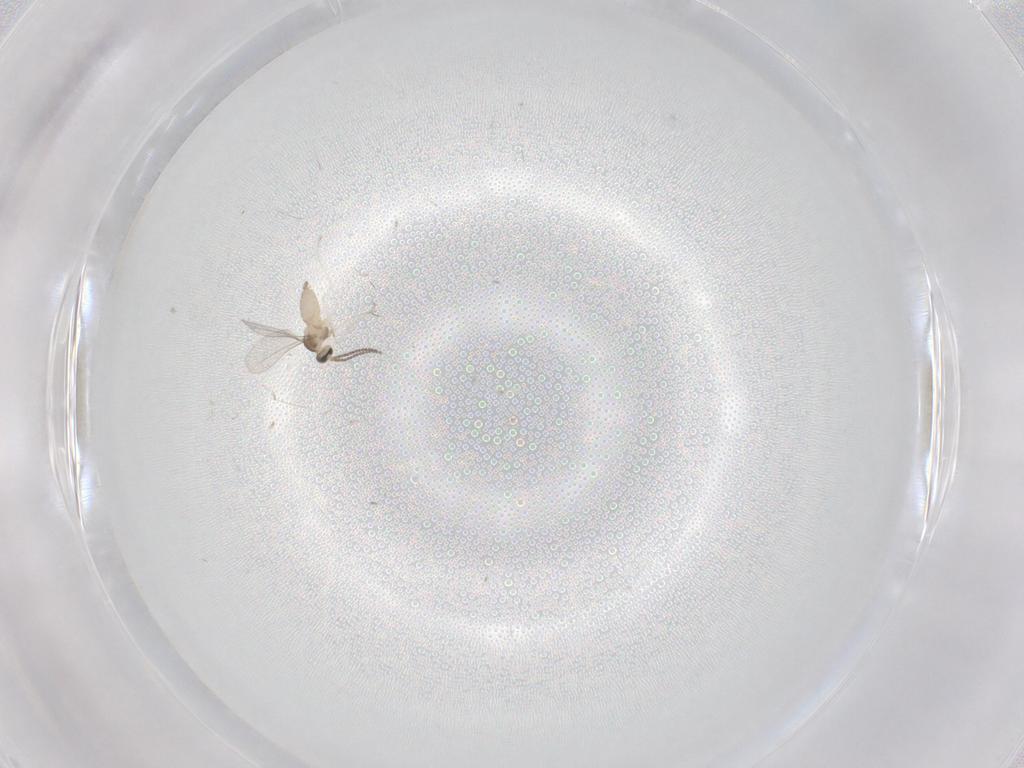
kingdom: Animalia
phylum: Arthropoda
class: Insecta
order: Diptera
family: Cecidomyiidae
